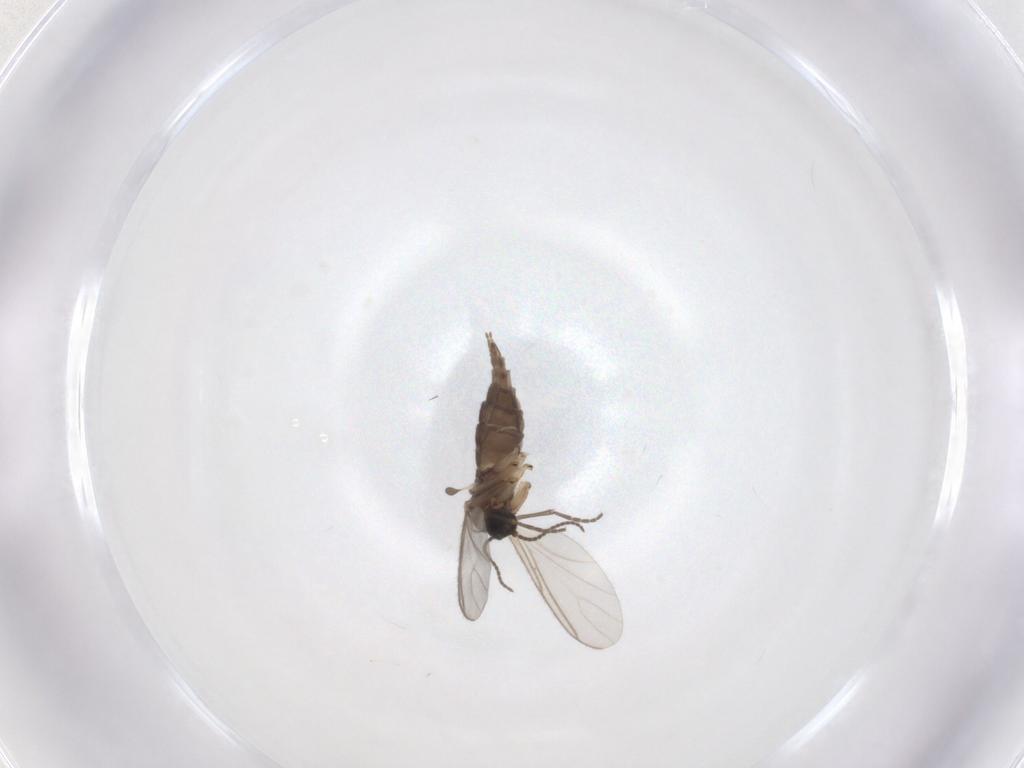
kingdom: Animalia
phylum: Arthropoda
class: Insecta
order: Diptera
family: Sciaridae
